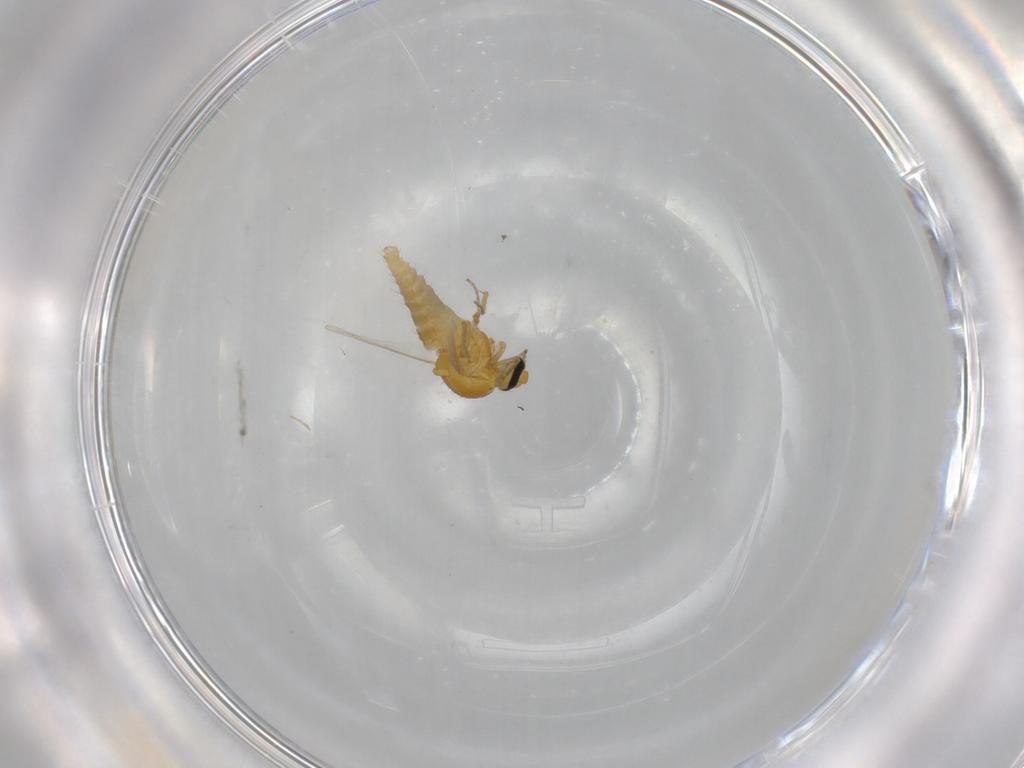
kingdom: Animalia
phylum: Arthropoda
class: Insecta
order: Diptera
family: Ceratopogonidae
